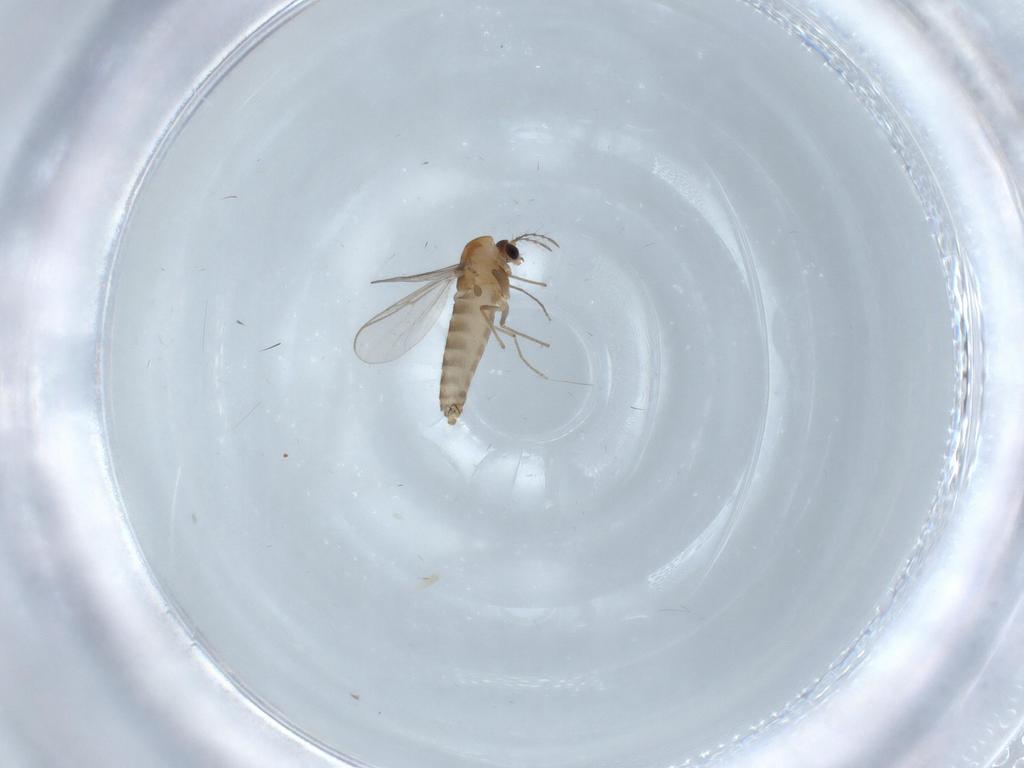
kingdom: Animalia
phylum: Arthropoda
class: Insecta
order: Diptera
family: Chironomidae
